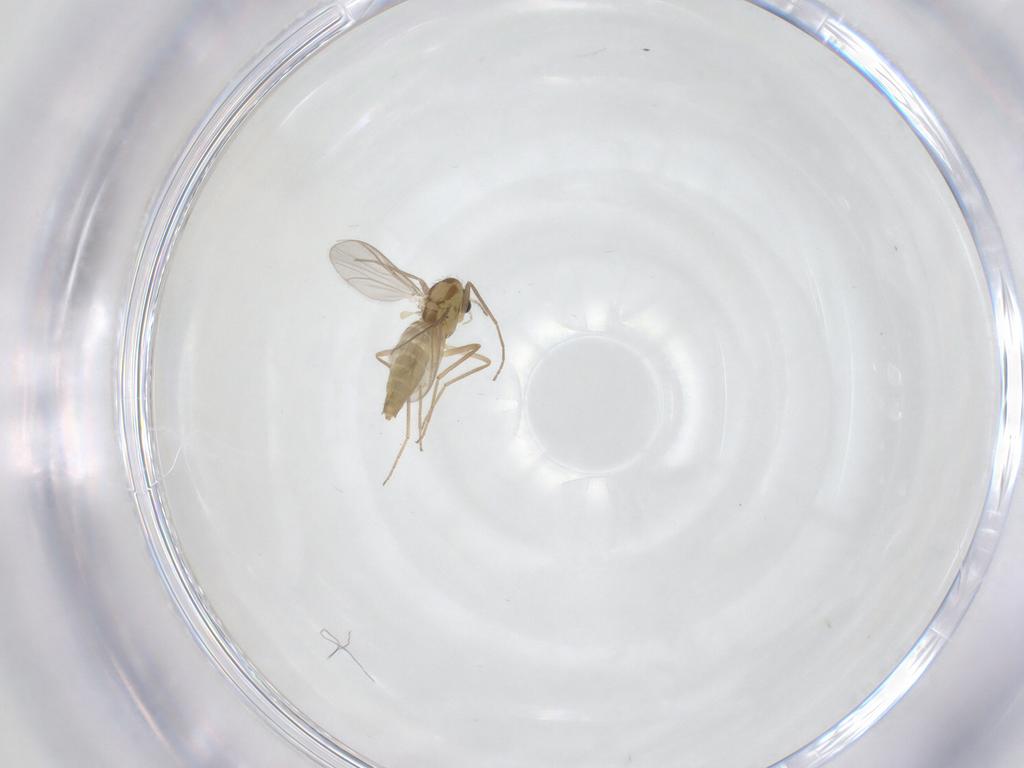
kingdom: Animalia
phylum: Arthropoda
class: Insecta
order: Diptera
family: Chironomidae
